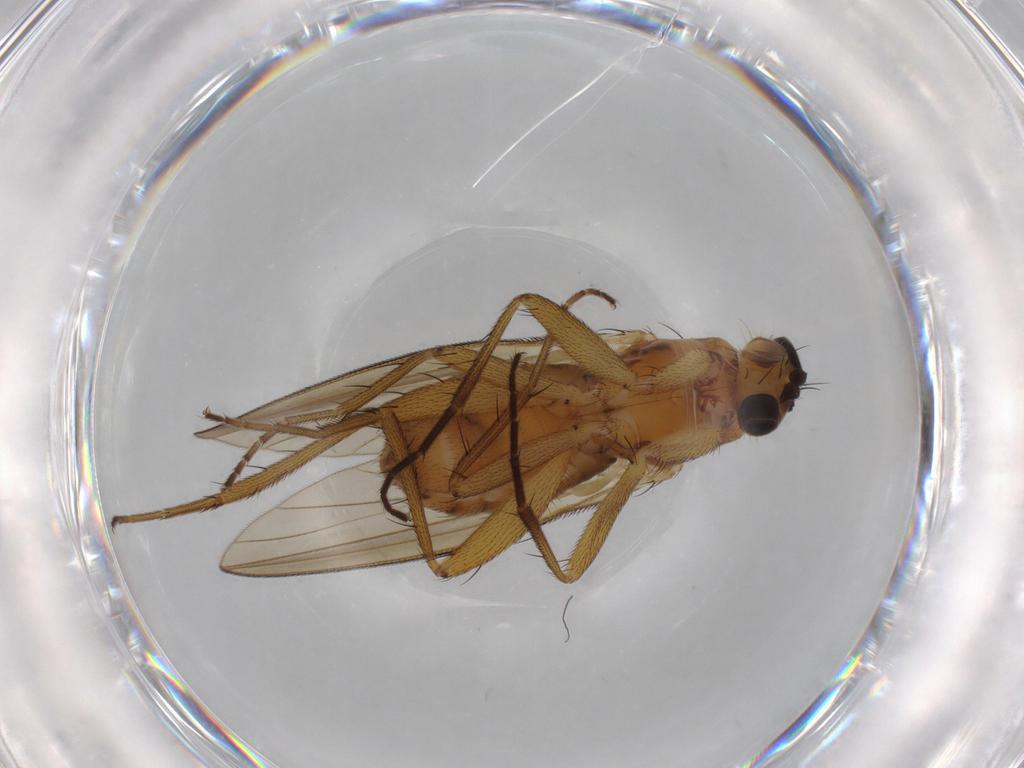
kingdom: Animalia
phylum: Arthropoda
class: Insecta
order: Diptera
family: Lonchopteridae
